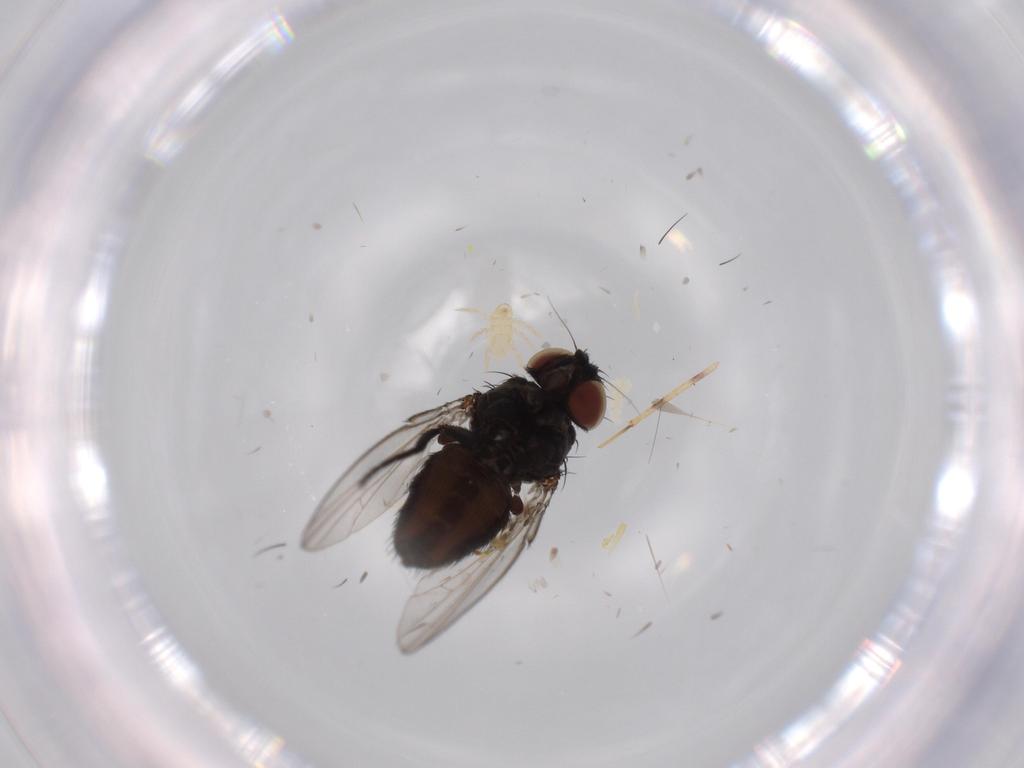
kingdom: Animalia
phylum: Arthropoda
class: Insecta
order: Diptera
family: Milichiidae
